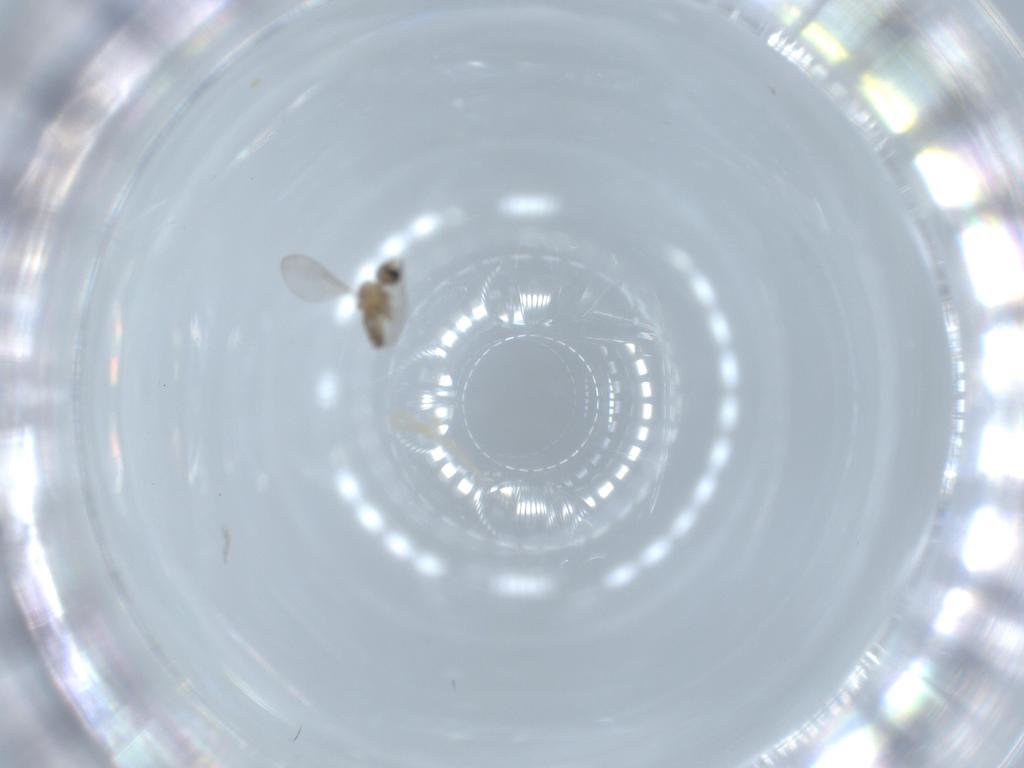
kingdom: Animalia
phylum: Arthropoda
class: Insecta
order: Diptera
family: Cecidomyiidae
